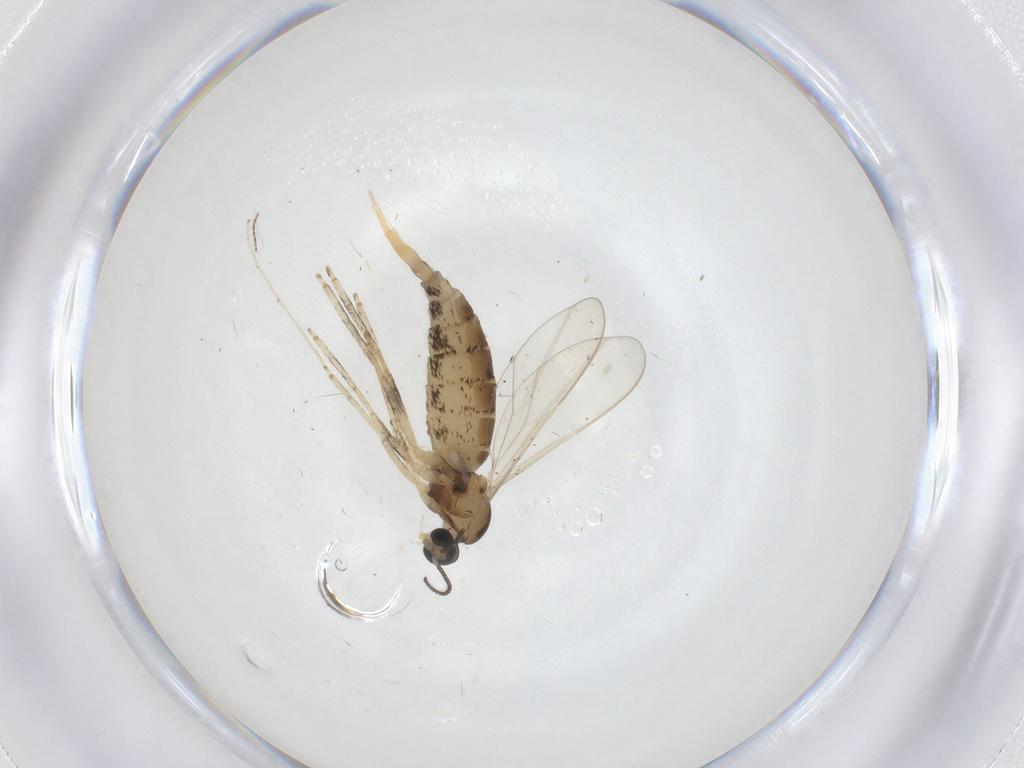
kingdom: Animalia
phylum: Arthropoda
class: Insecta
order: Diptera
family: Cecidomyiidae
